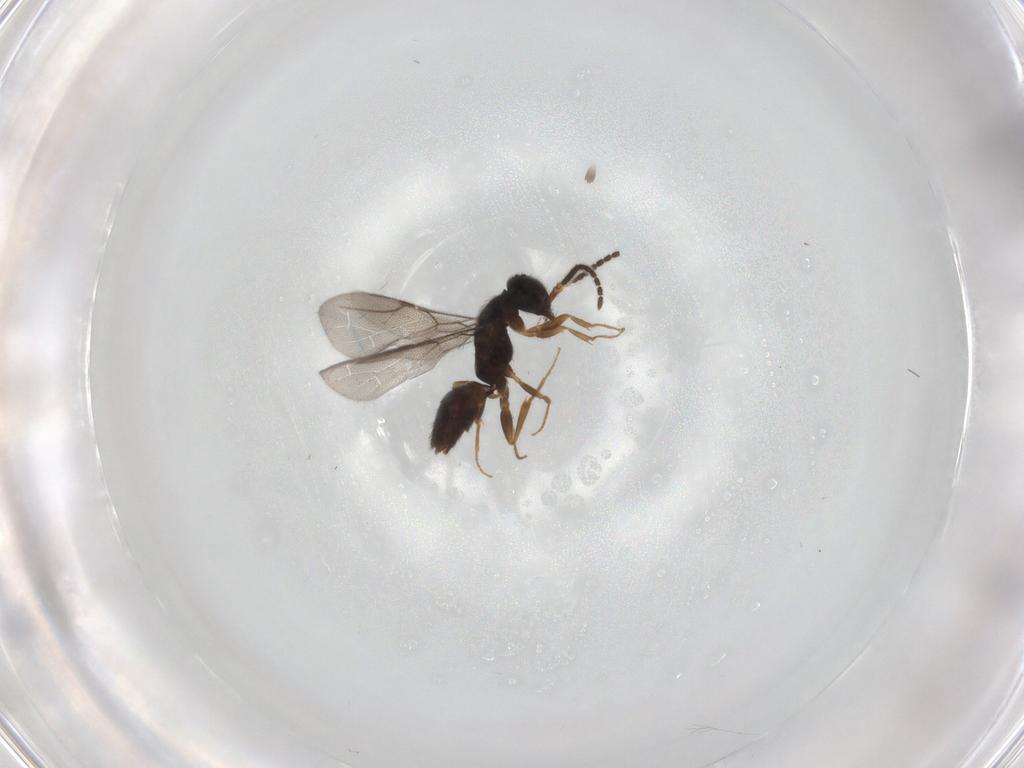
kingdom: Animalia
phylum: Arthropoda
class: Insecta
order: Hymenoptera
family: Bethylidae
